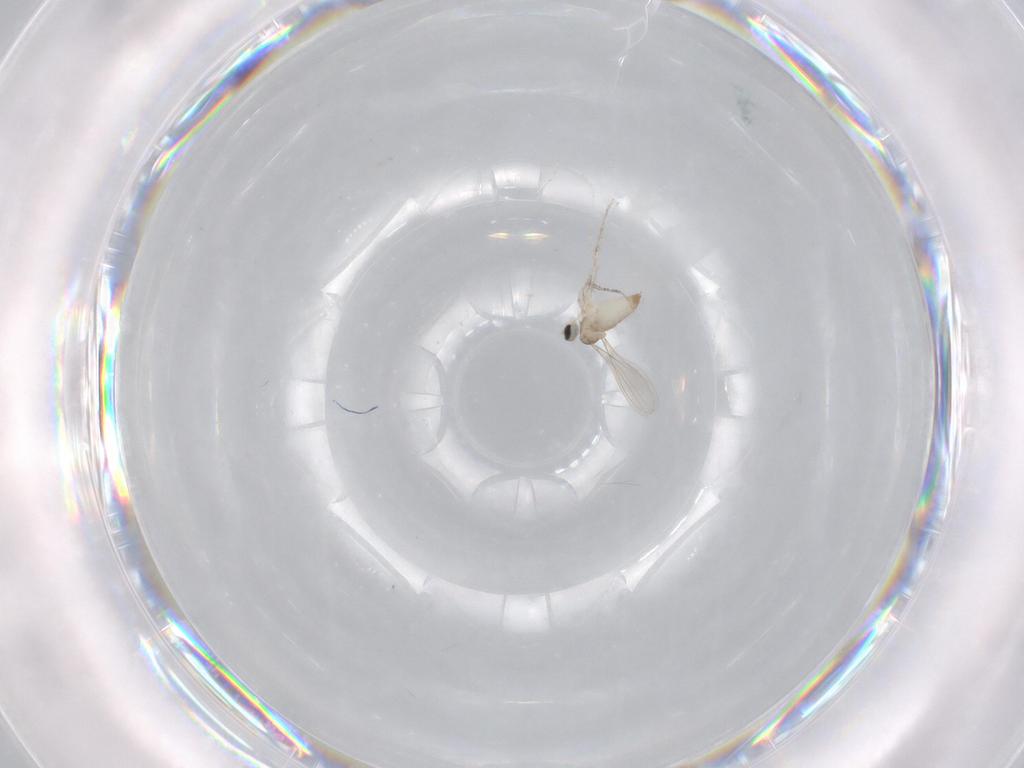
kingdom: Animalia
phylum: Arthropoda
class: Insecta
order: Diptera
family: Cecidomyiidae
